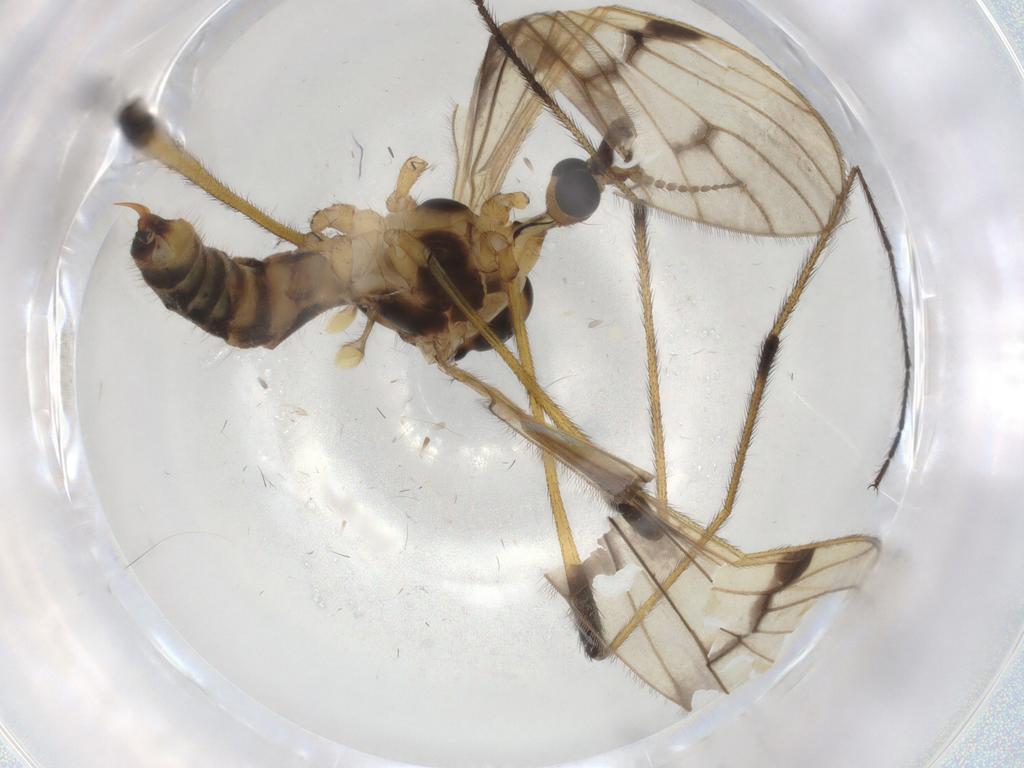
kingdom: Animalia
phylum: Arthropoda
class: Insecta
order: Diptera
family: Limoniidae
